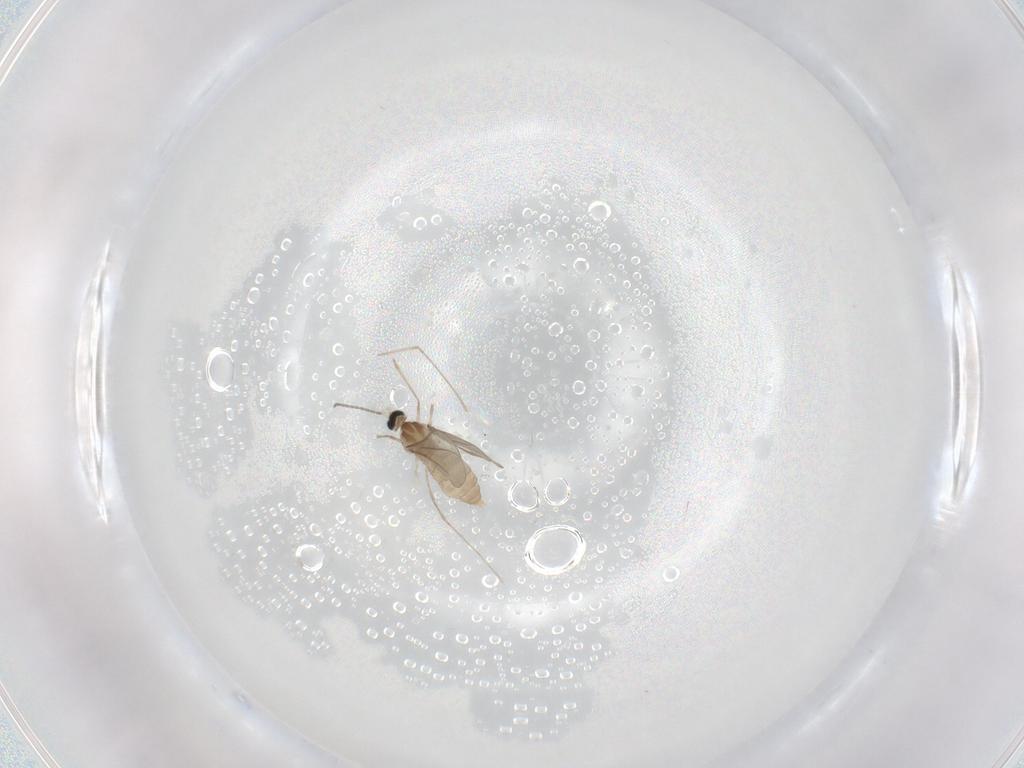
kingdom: Animalia
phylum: Arthropoda
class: Insecta
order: Diptera
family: Cecidomyiidae
